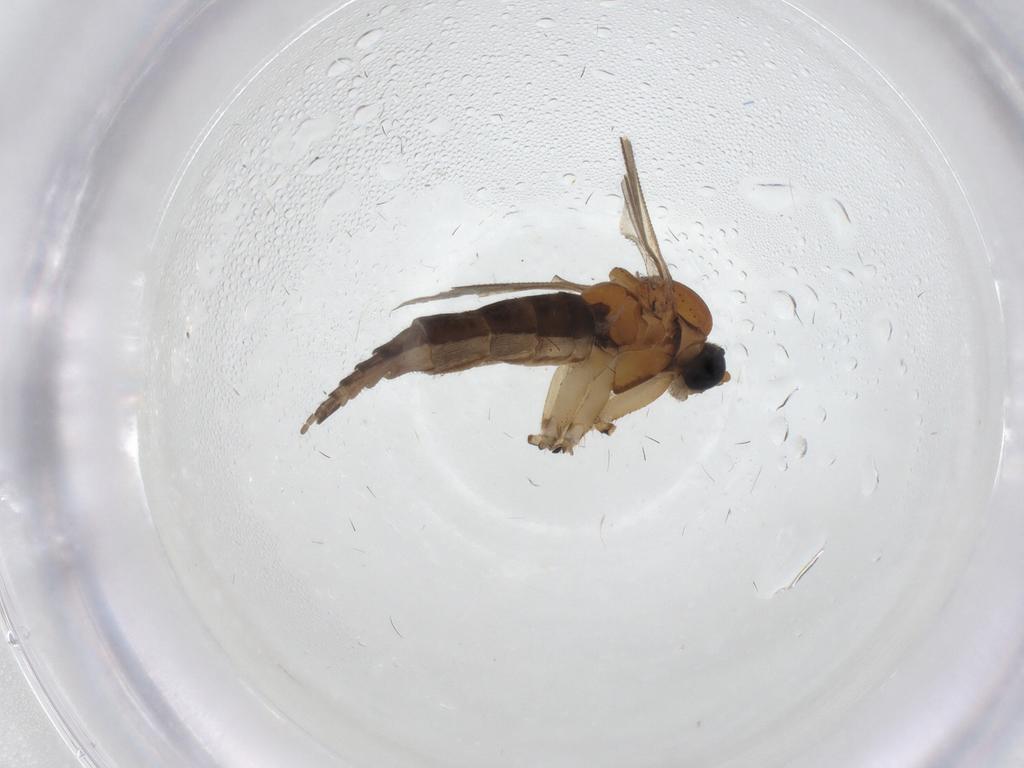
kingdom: Animalia
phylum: Arthropoda
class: Insecta
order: Diptera
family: Sciaridae
